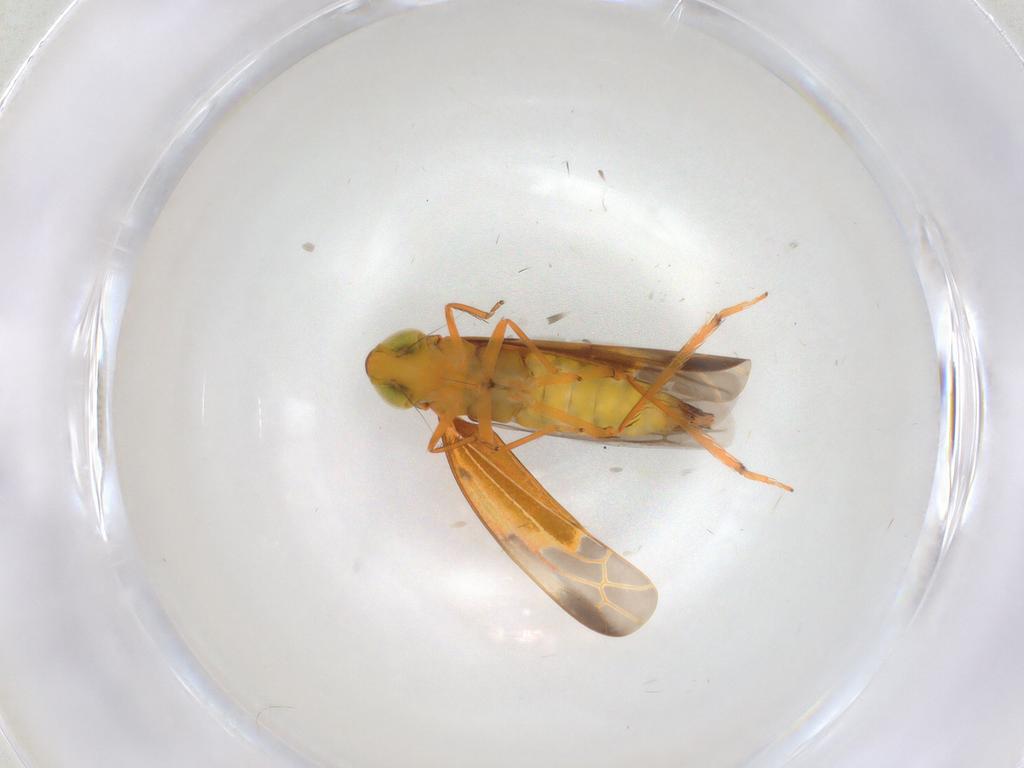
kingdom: Animalia
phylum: Arthropoda
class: Insecta
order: Hemiptera
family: Cicadellidae
